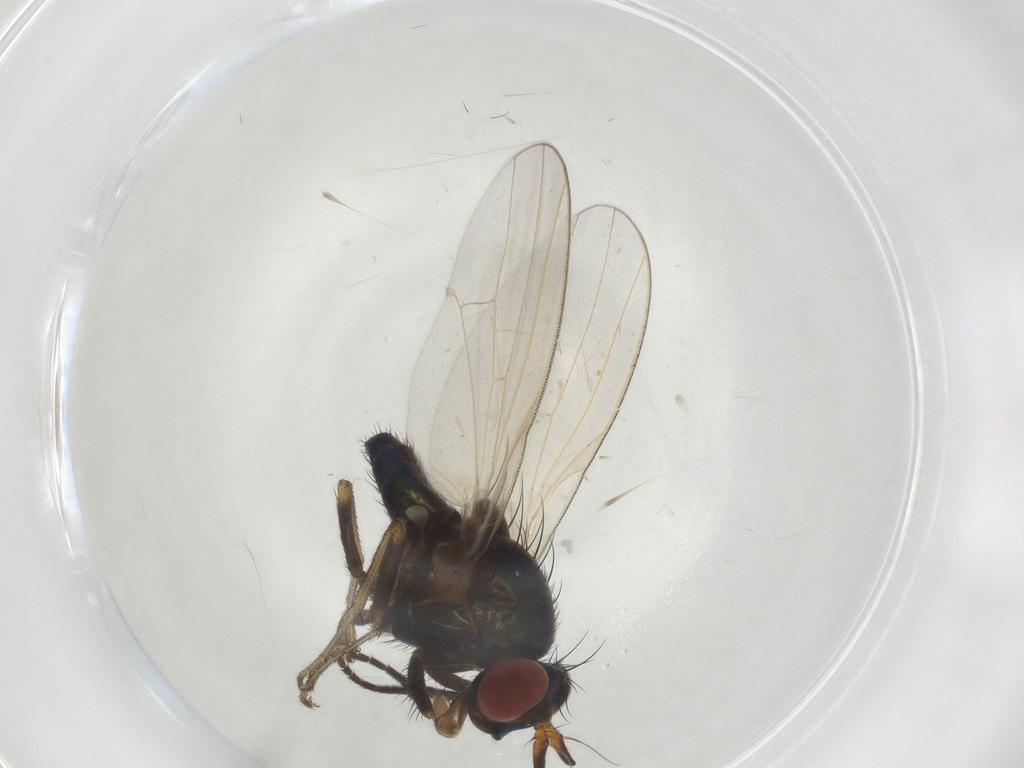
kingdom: Animalia
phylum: Arthropoda
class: Insecta
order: Diptera
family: Lauxaniidae
